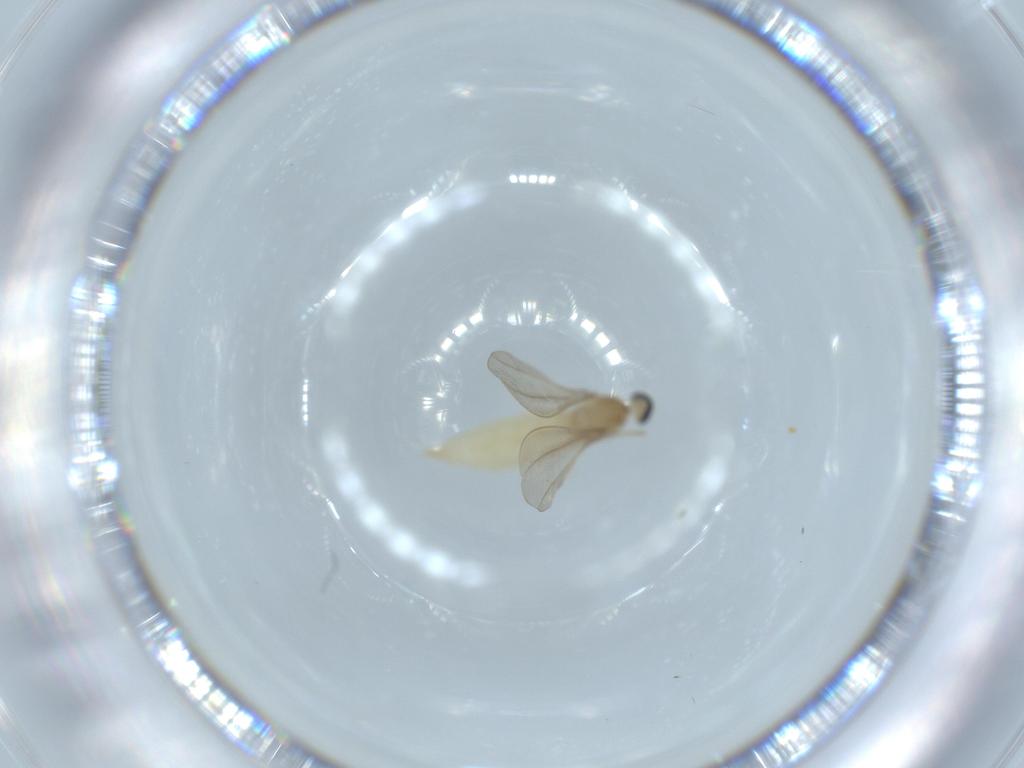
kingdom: Animalia
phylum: Arthropoda
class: Insecta
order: Diptera
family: Cecidomyiidae
